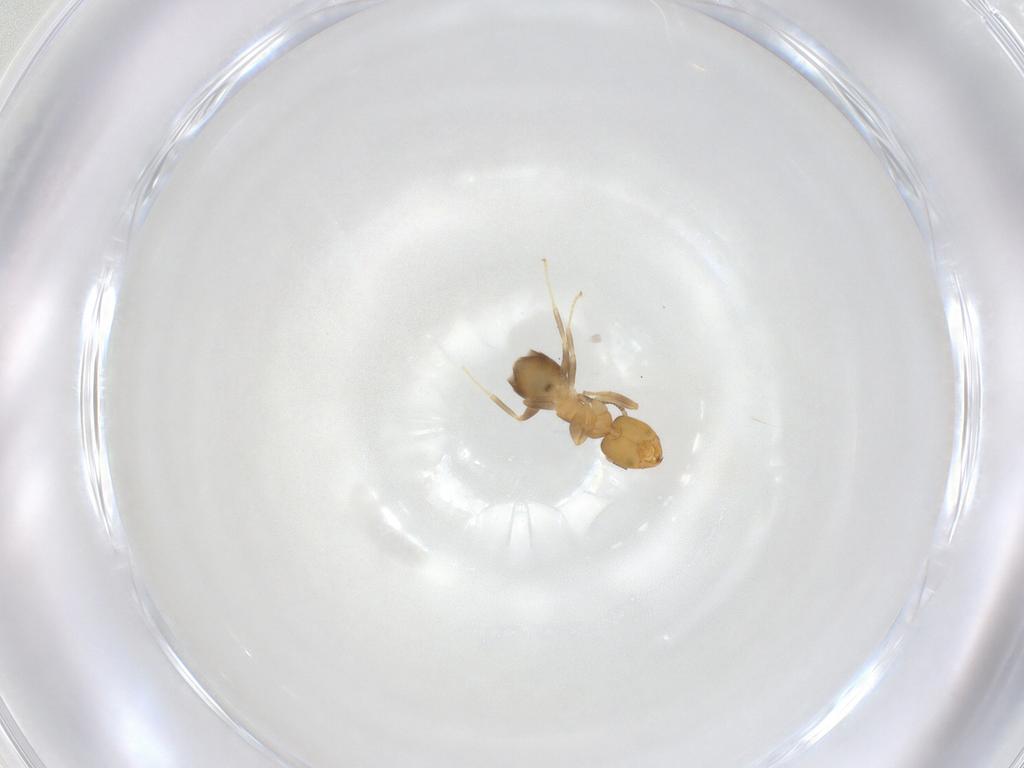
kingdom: Animalia
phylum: Arthropoda
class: Insecta
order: Hymenoptera
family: Formicidae
